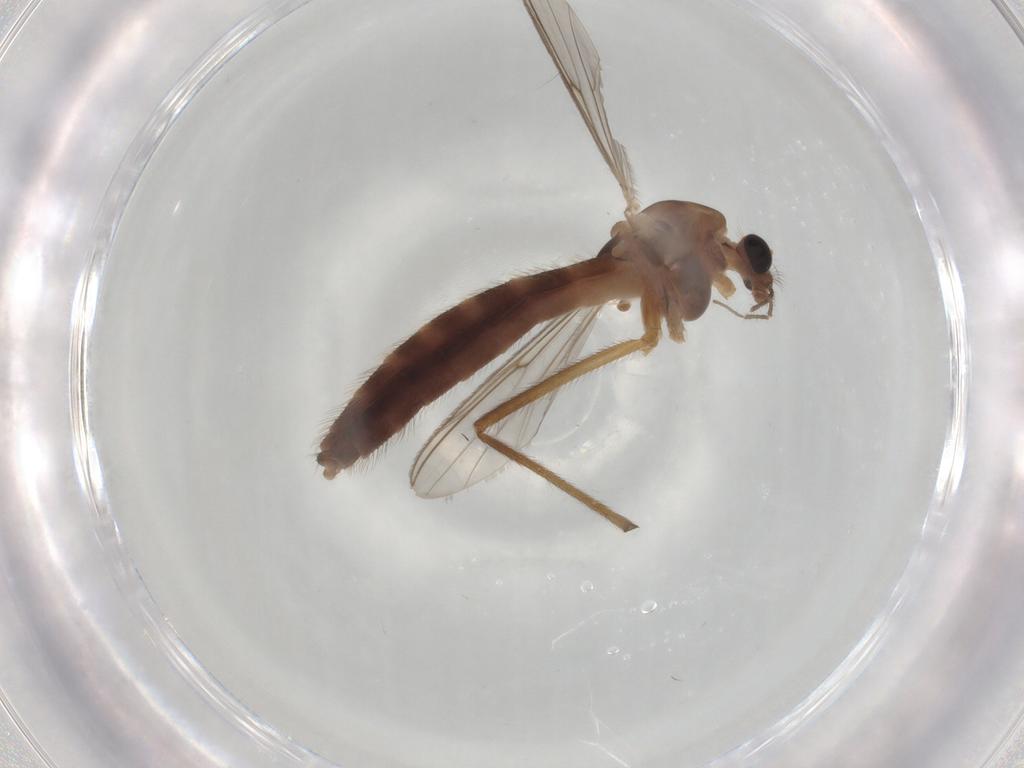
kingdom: Animalia
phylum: Arthropoda
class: Insecta
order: Diptera
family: Chironomidae
